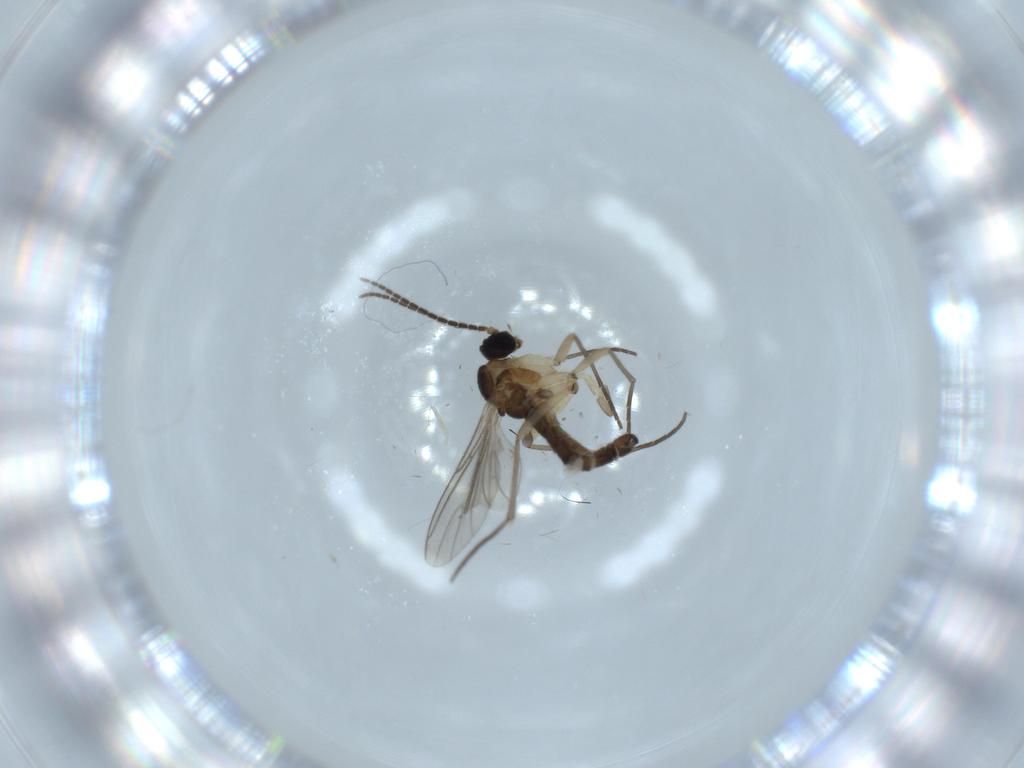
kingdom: Animalia
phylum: Arthropoda
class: Insecta
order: Diptera
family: Sciaridae
